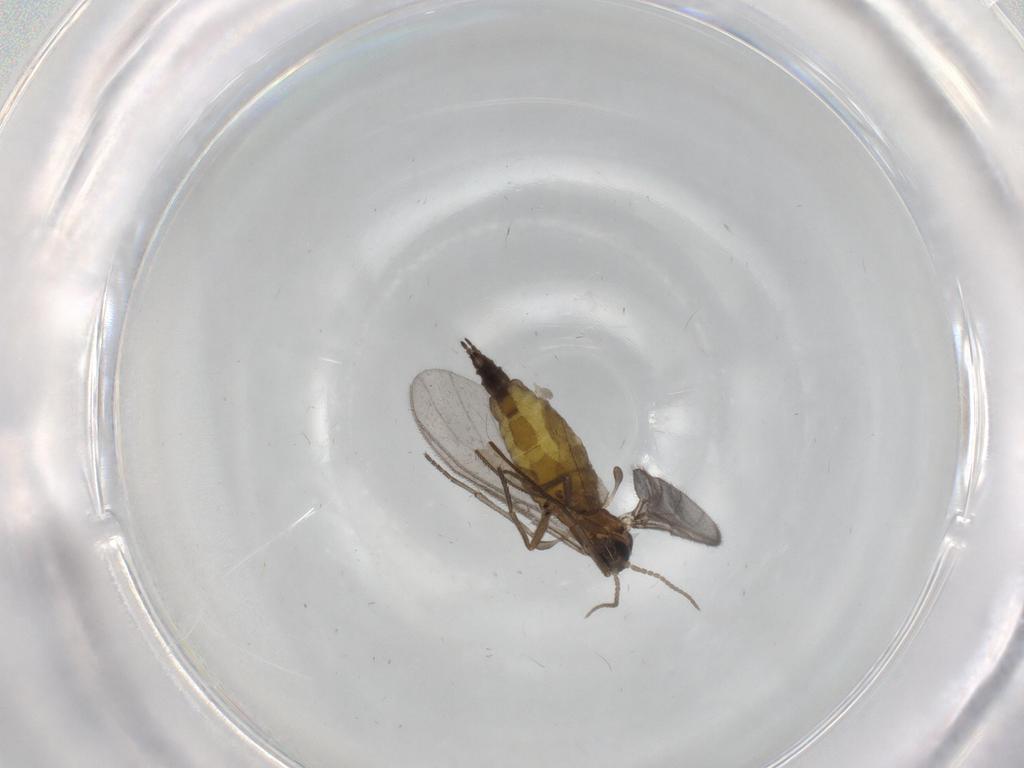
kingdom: Animalia
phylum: Arthropoda
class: Insecta
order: Diptera
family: Sciaridae
